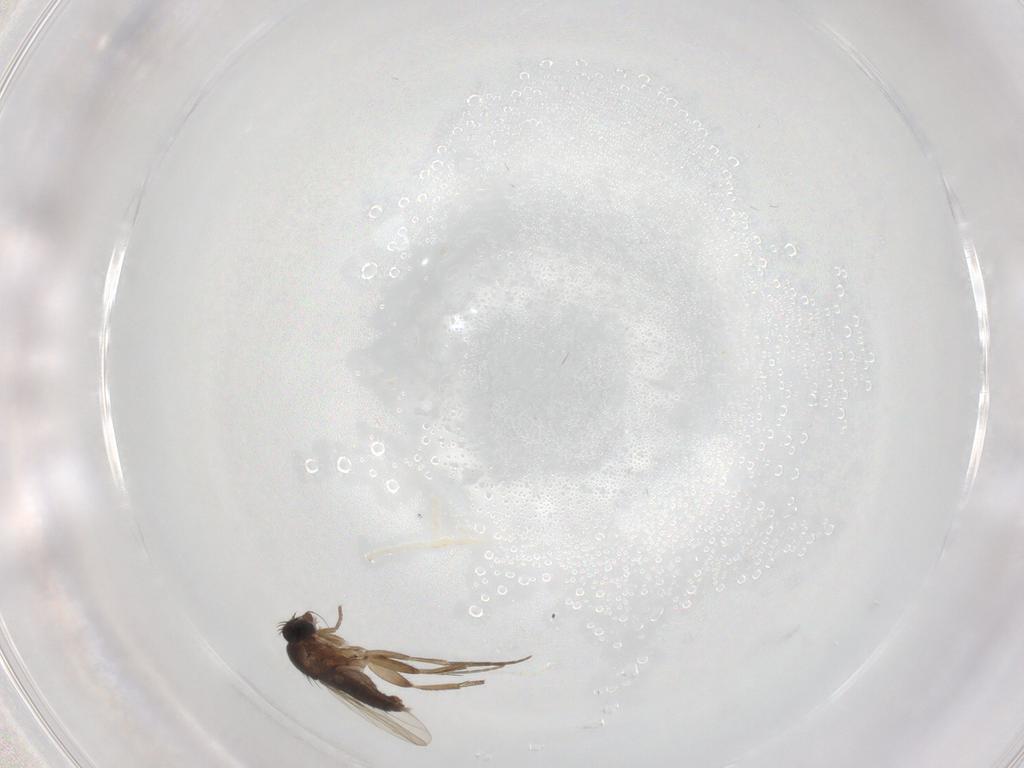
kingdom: Animalia
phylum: Arthropoda
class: Insecta
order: Diptera
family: Phoridae
